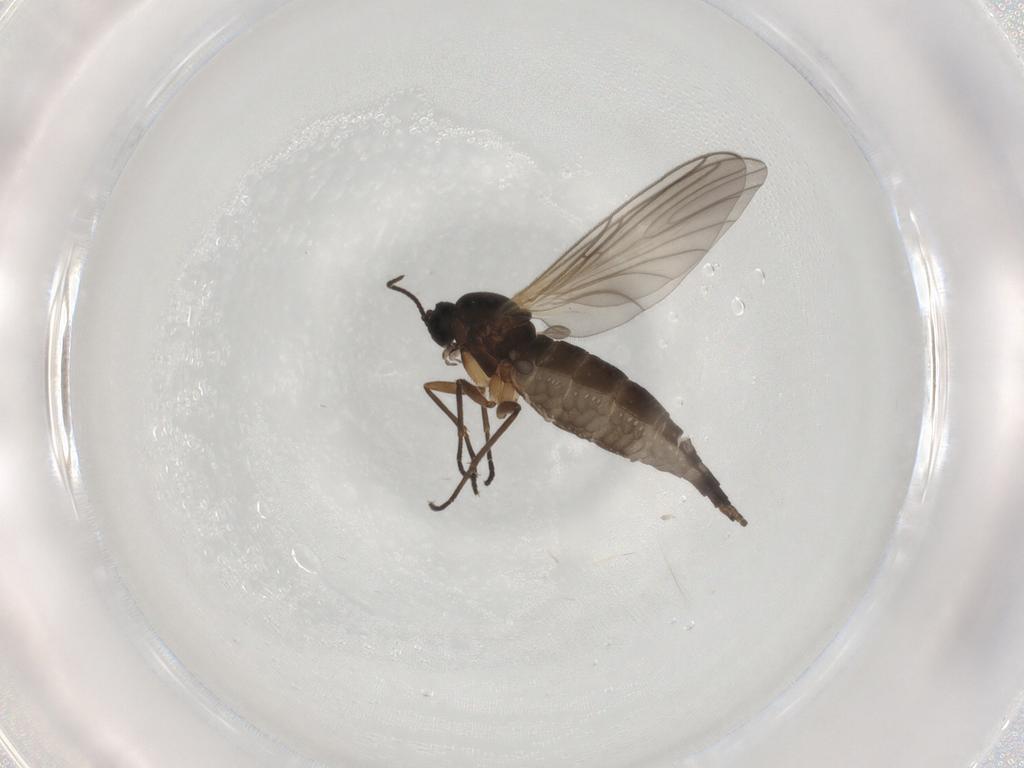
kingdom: Animalia
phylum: Arthropoda
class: Insecta
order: Diptera
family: Sciaridae
